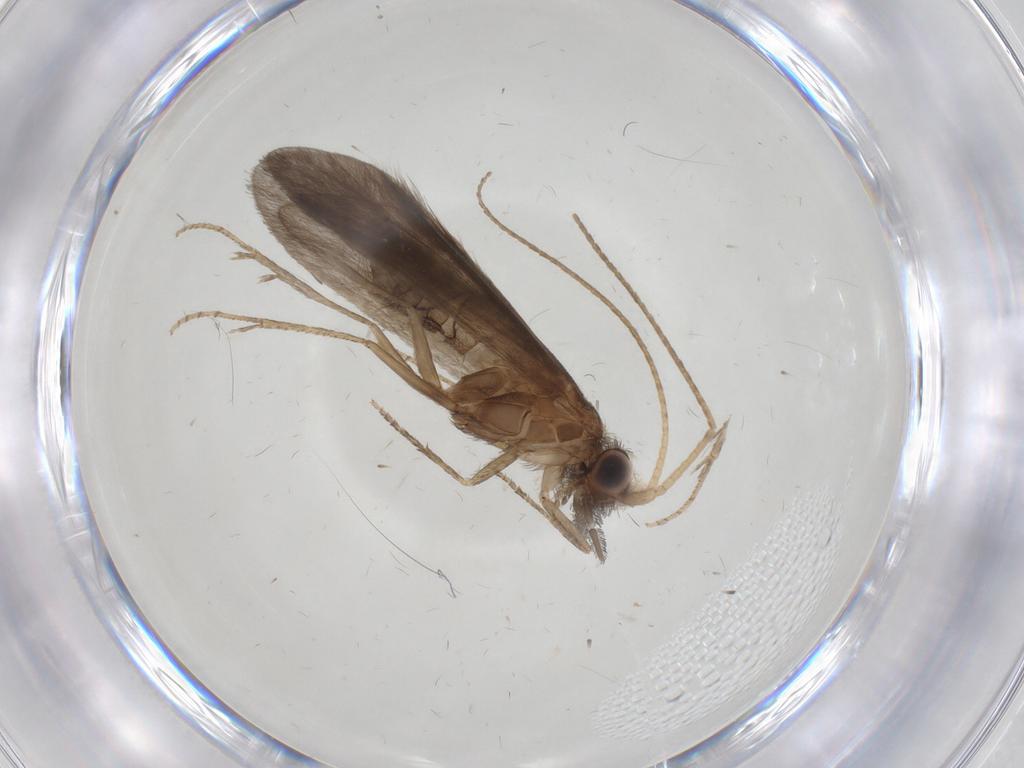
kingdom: Animalia
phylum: Arthropoda
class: Insecta
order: Trichoptera
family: Helicopsychidae
